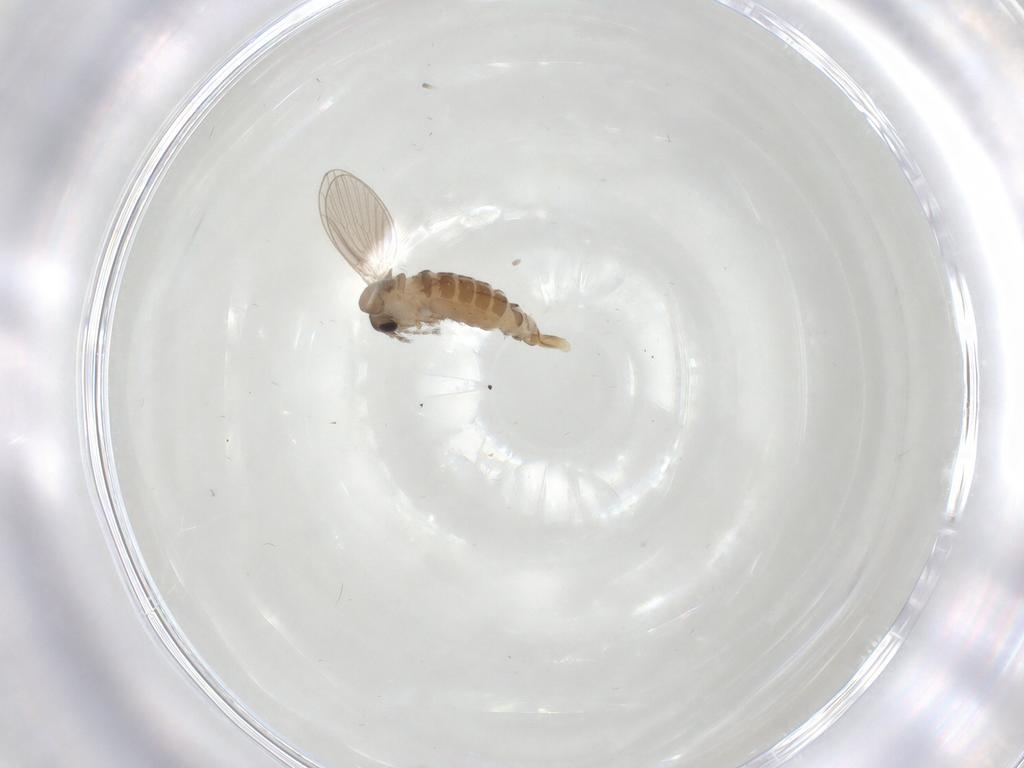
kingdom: Animalia
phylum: Arthropoda
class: Insecta
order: Diptera
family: Psychodidae
